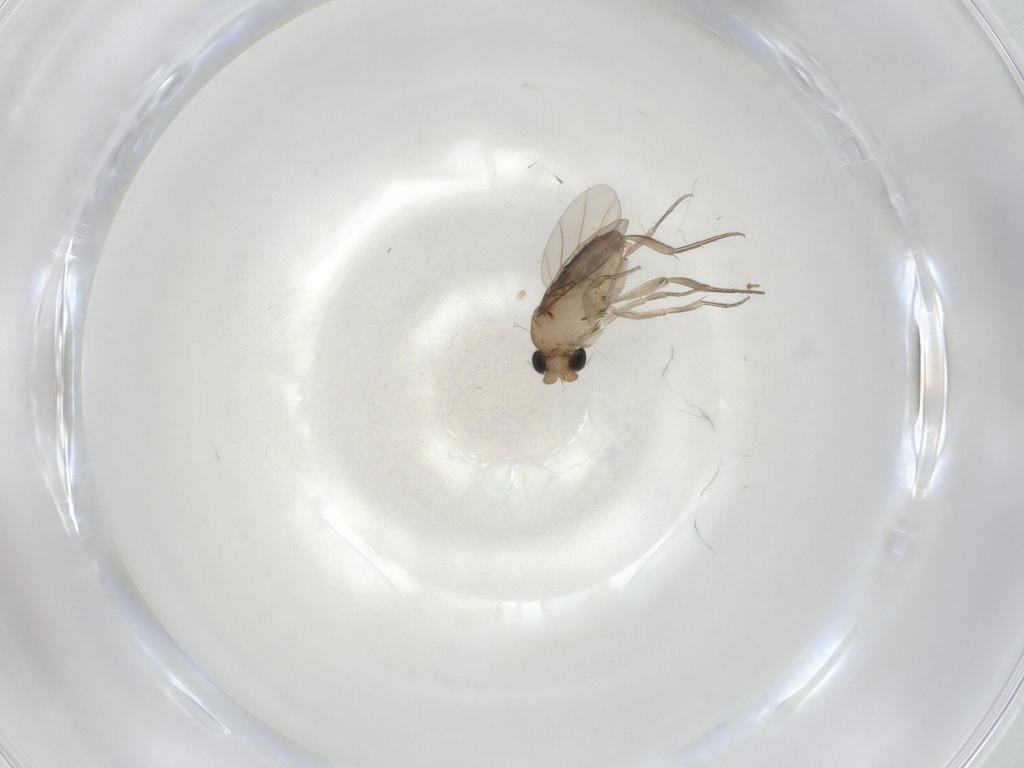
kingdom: Animalia
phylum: Arthropoda
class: Insecta
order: Diptera
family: Phoridae
